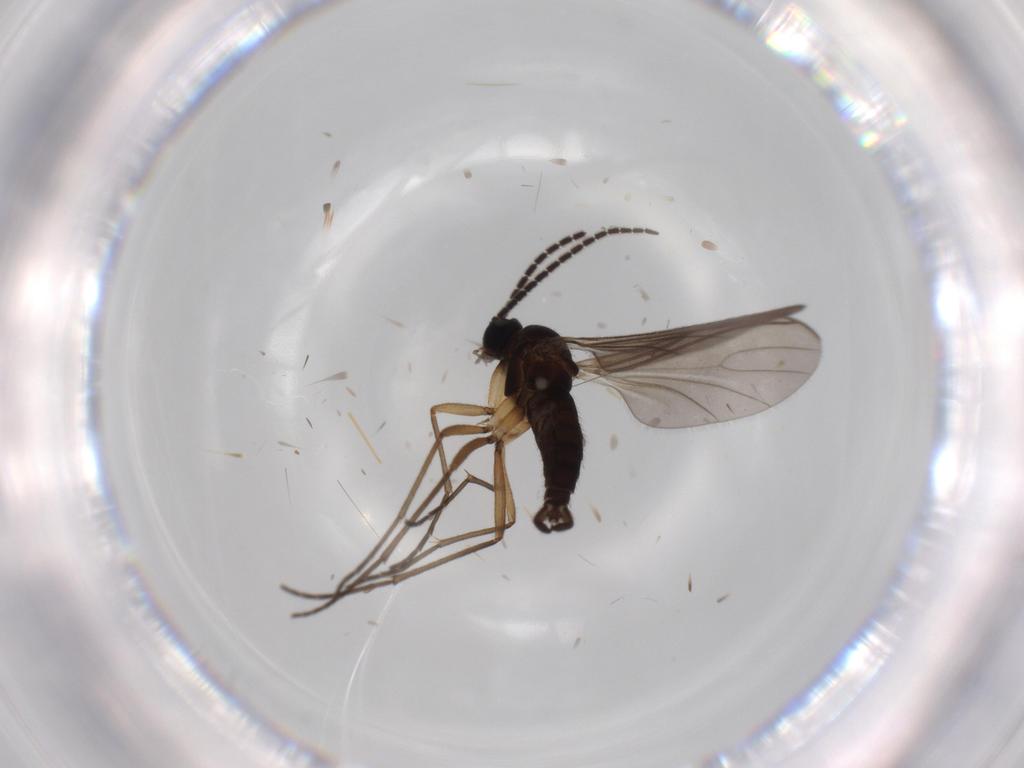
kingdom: Animalia
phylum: Arthropoda
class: Insecta
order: Diptera
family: Sciaridae
